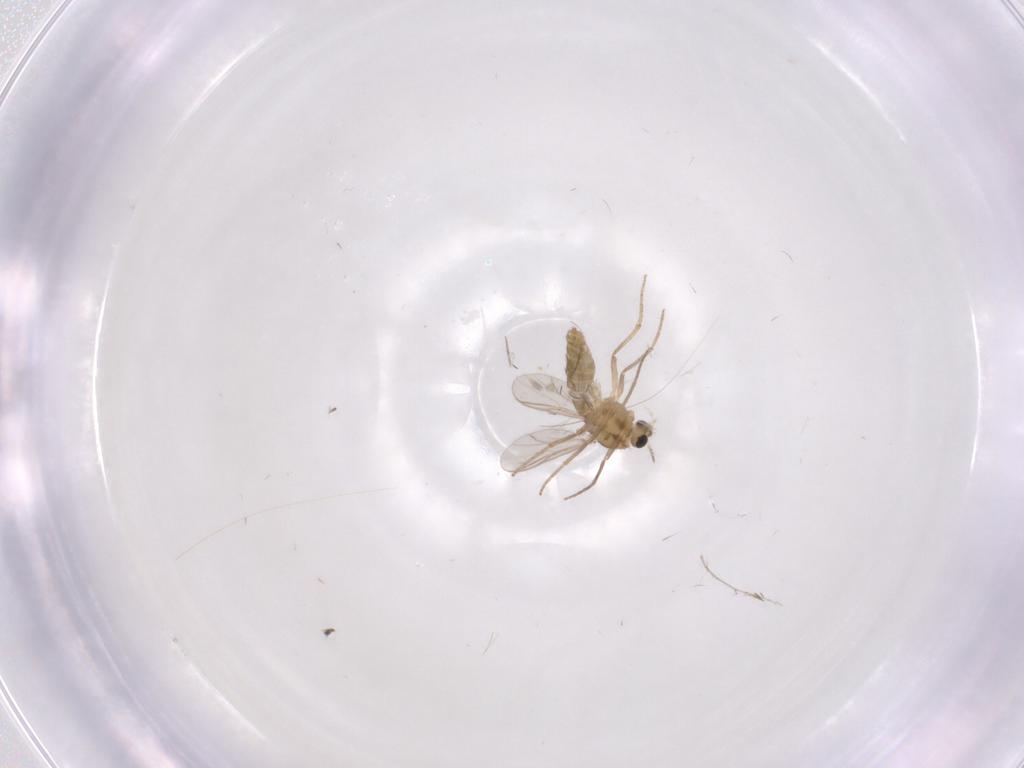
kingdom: Animalia
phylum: Arthropoda
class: Insecta
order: Diptera
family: Chironomidae
